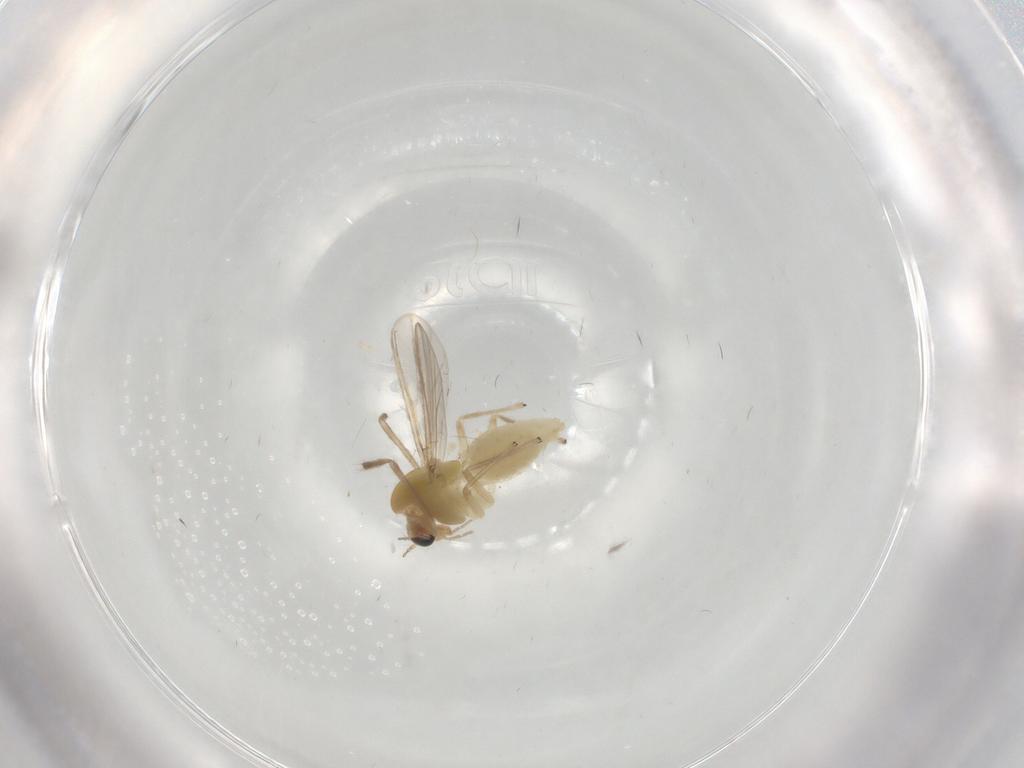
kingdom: Animalia
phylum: Arthropoda
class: Insecta
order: Diptera
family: Chironomidae
